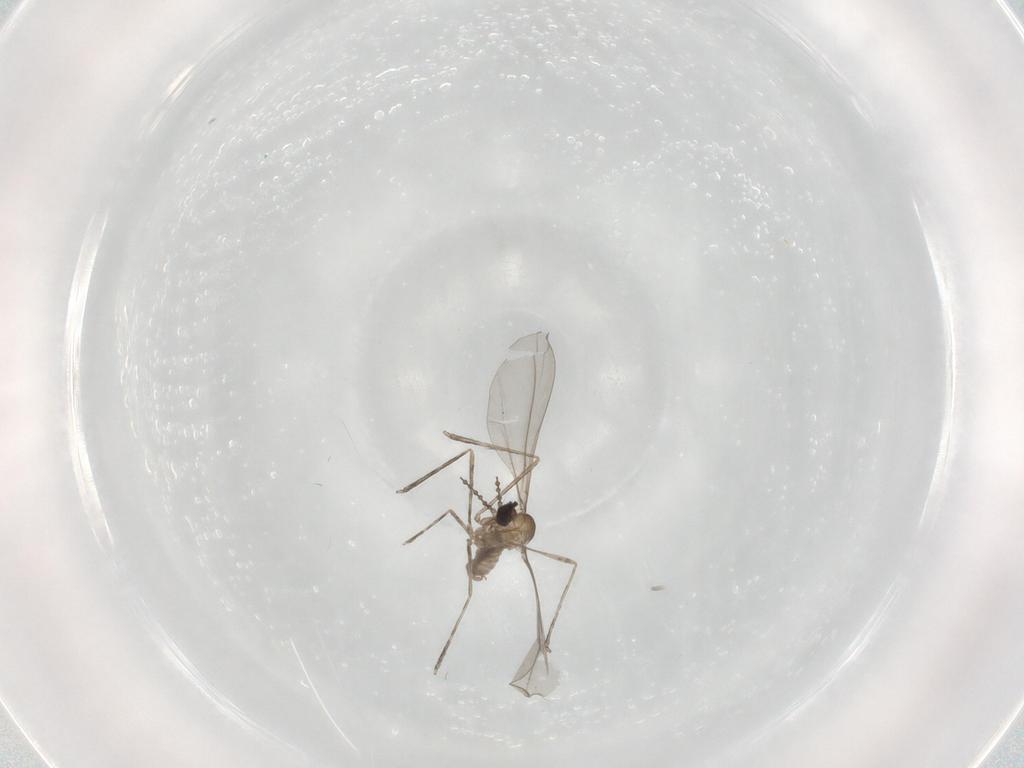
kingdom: Animalia
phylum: Arthropoda
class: Insecta
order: Diptera
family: Cecidomyiidae
